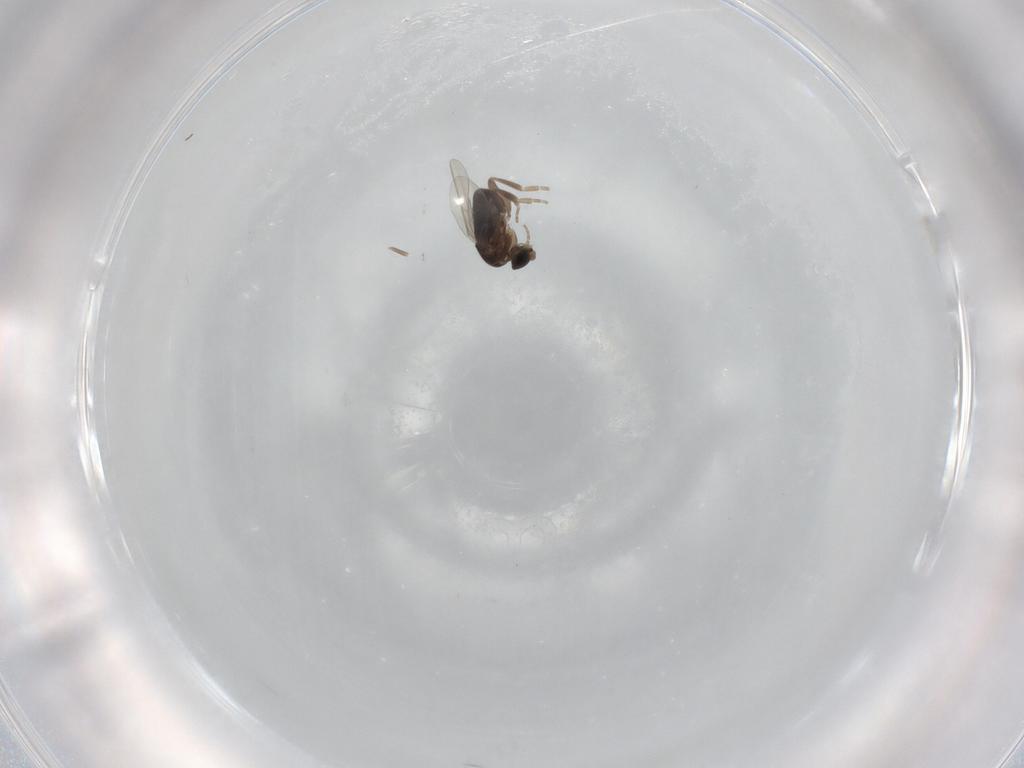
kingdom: Animalia
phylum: Arthropoda
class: Insecta
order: Diptera
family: Phoridae
